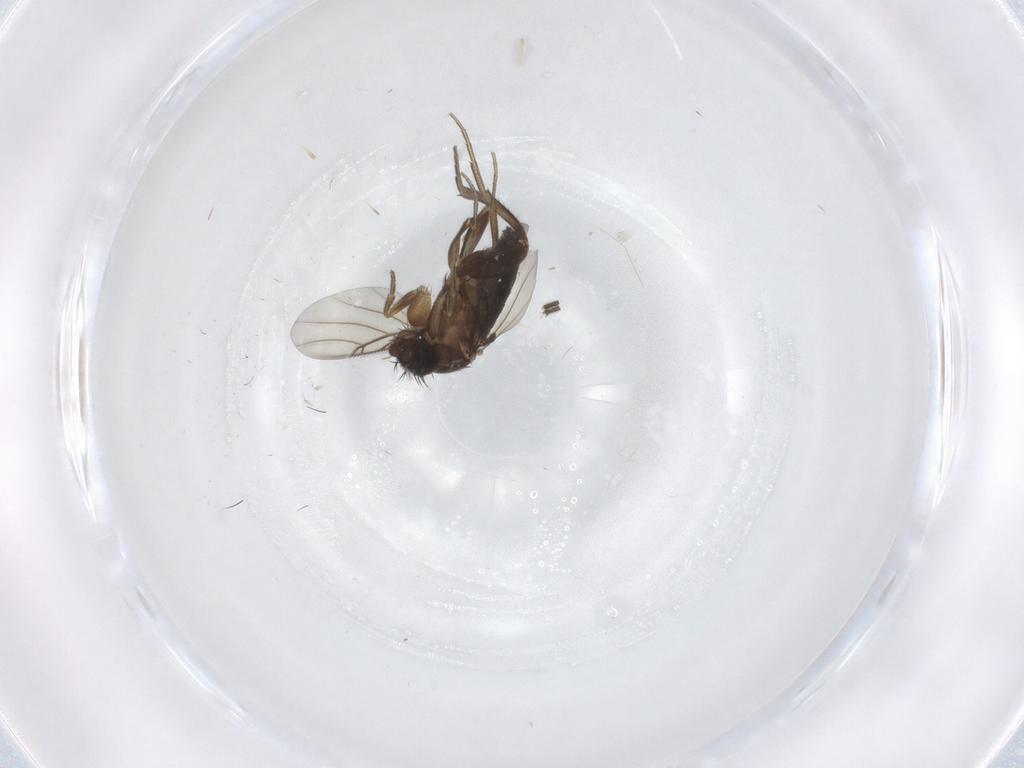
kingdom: Animalia
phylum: Arthropoda
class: Insecta
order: Diptera
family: Phoridae
